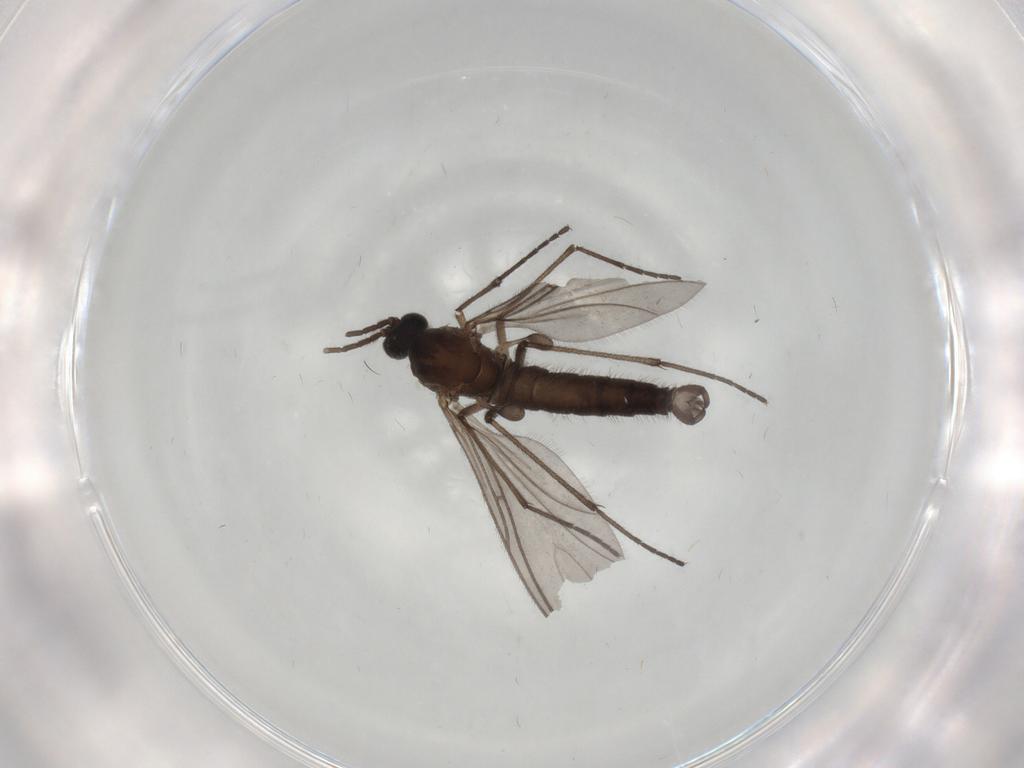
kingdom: Animalia
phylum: Arthropoda
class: Insecta
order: Diptera
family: Sciaridae
